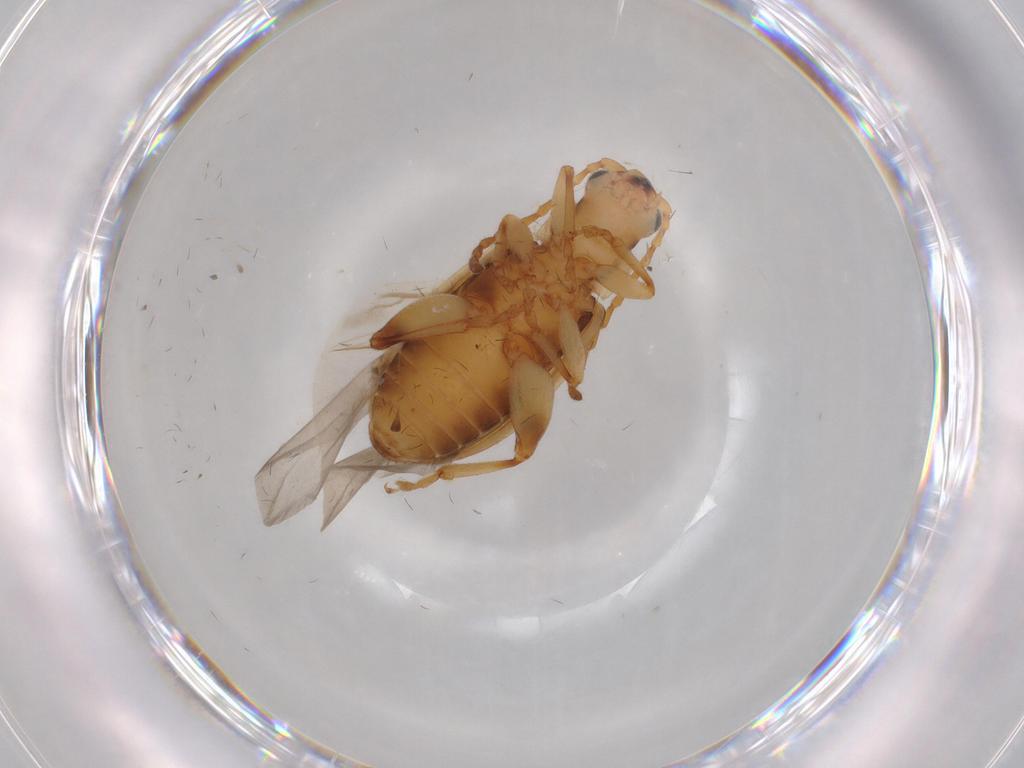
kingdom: Animalia
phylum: Arthropoda
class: Insecta
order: Coleoptera
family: Chrysomelidae
